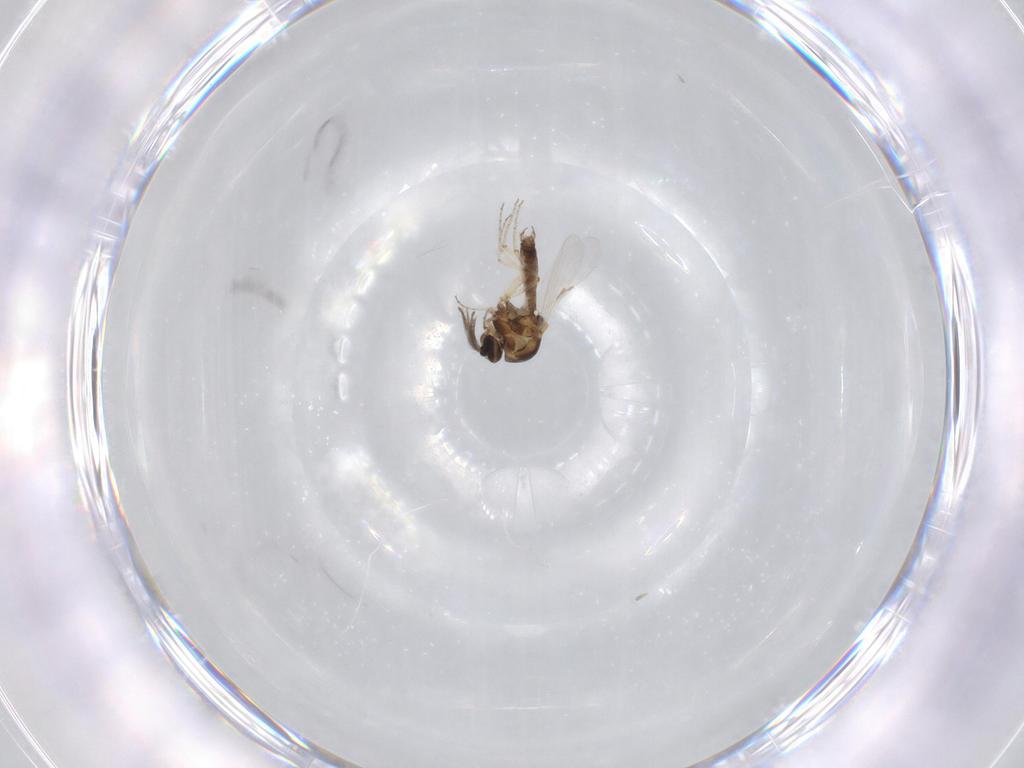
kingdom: Animalia
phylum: Arthropoda
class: Insecta
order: Diptera
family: Ceratopogonidae
